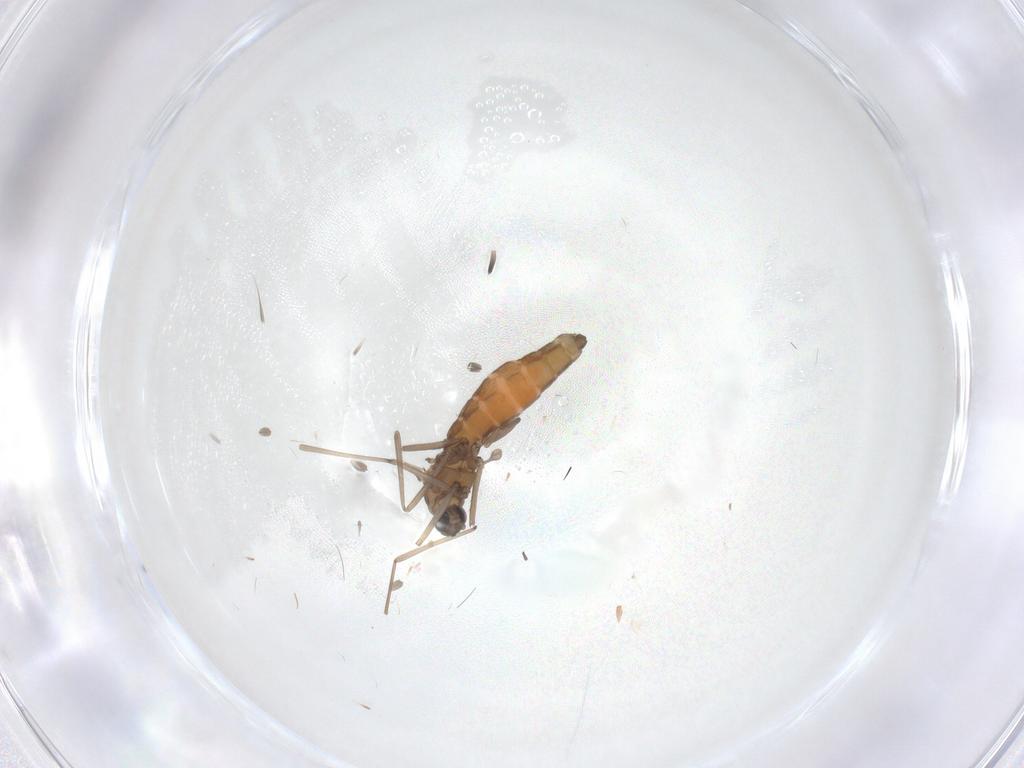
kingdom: Animalia
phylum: Arthropoda
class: Insecta
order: Diptera
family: Cecidomyiidae
